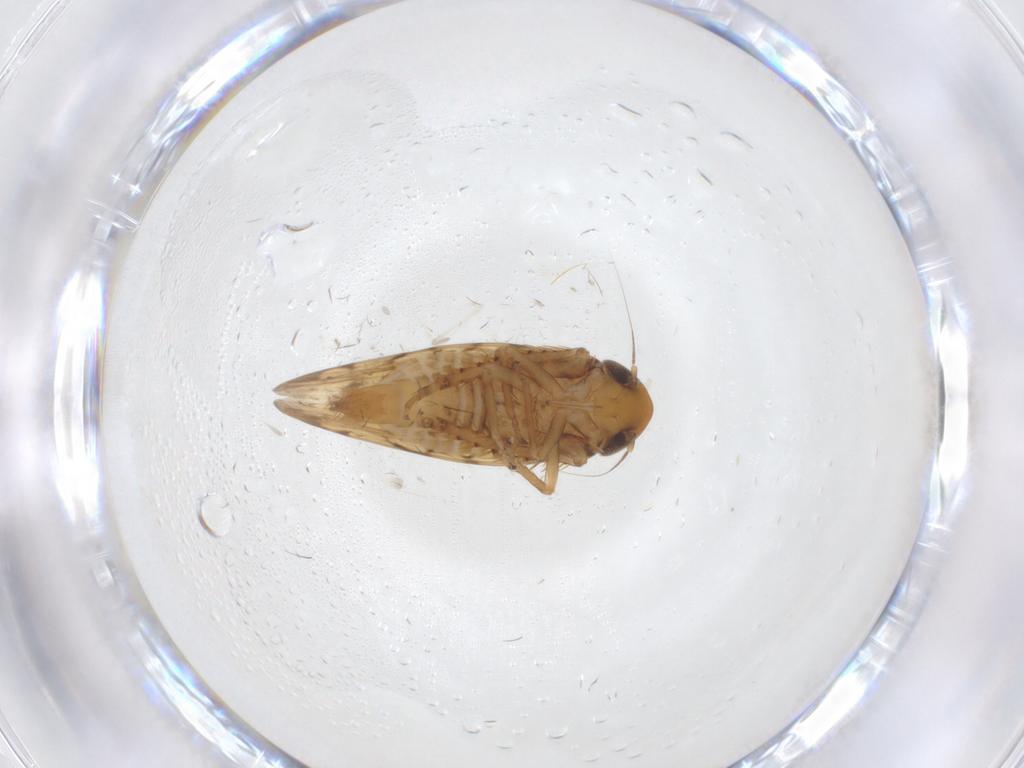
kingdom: Animalia
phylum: Arthropoda
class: Insecta
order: Hemiptera
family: Cicadellidae
